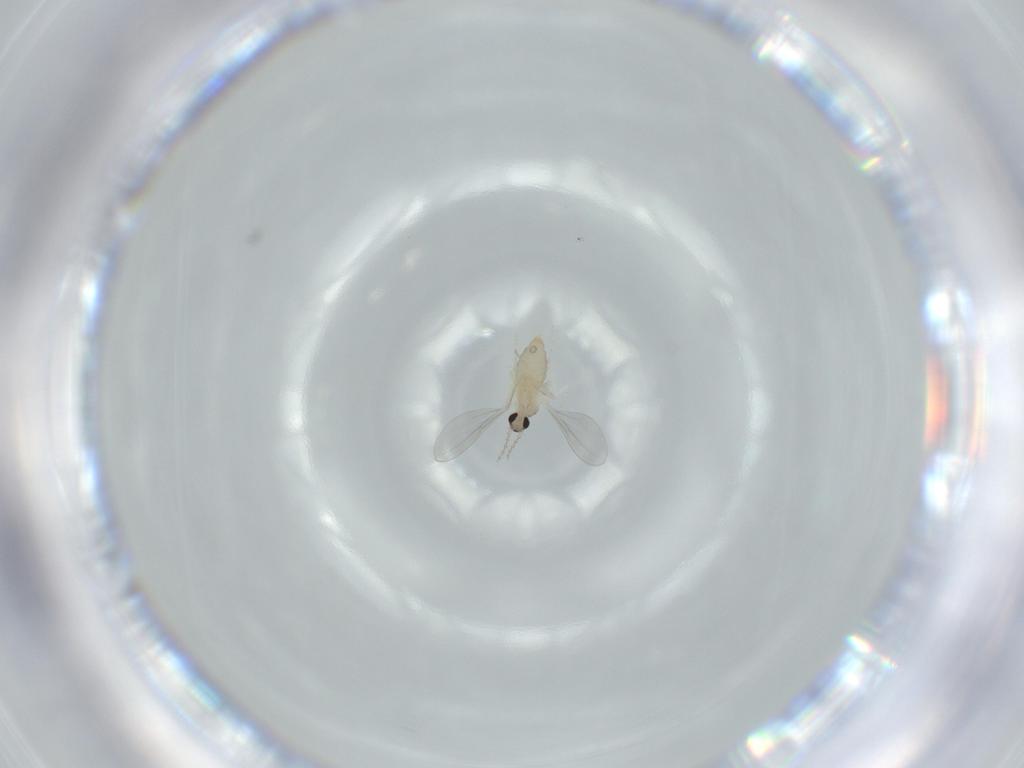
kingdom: Animalia
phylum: Arthropoda
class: Insecta
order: Diptera
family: Cecidomyiidae
